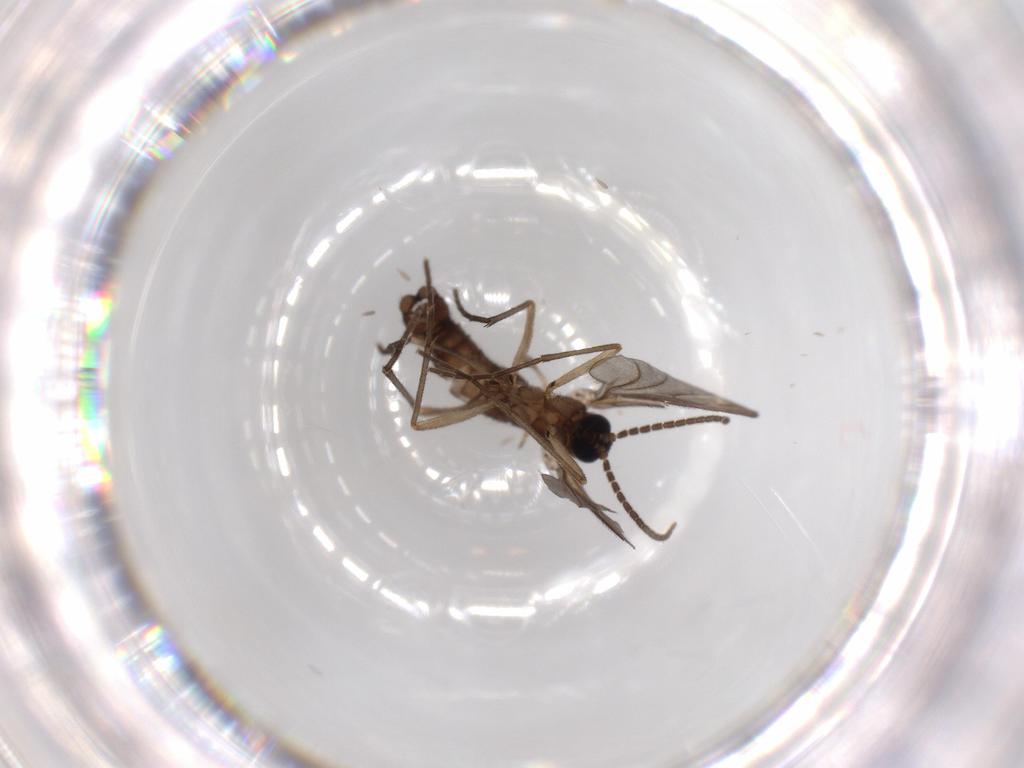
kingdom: Animalia
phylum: Arthropoda
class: Insecta
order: Diptera
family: Sciaridae
